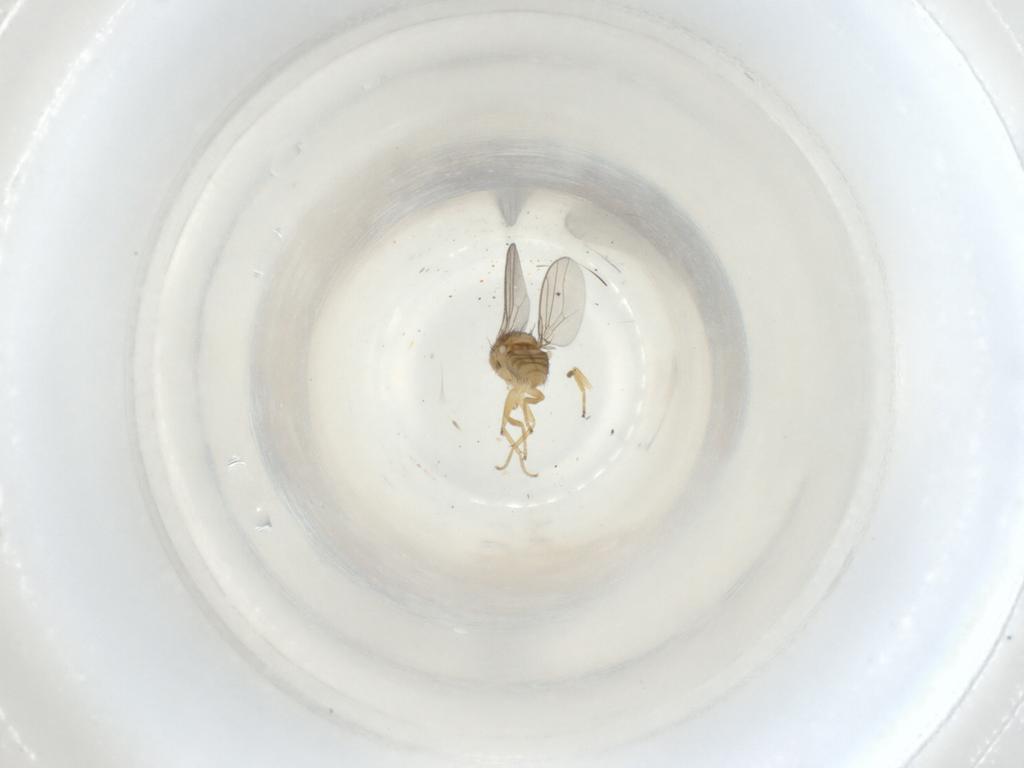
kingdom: Animalia
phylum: Arthropoda
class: Insecta
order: Diptera
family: Chloropidae
